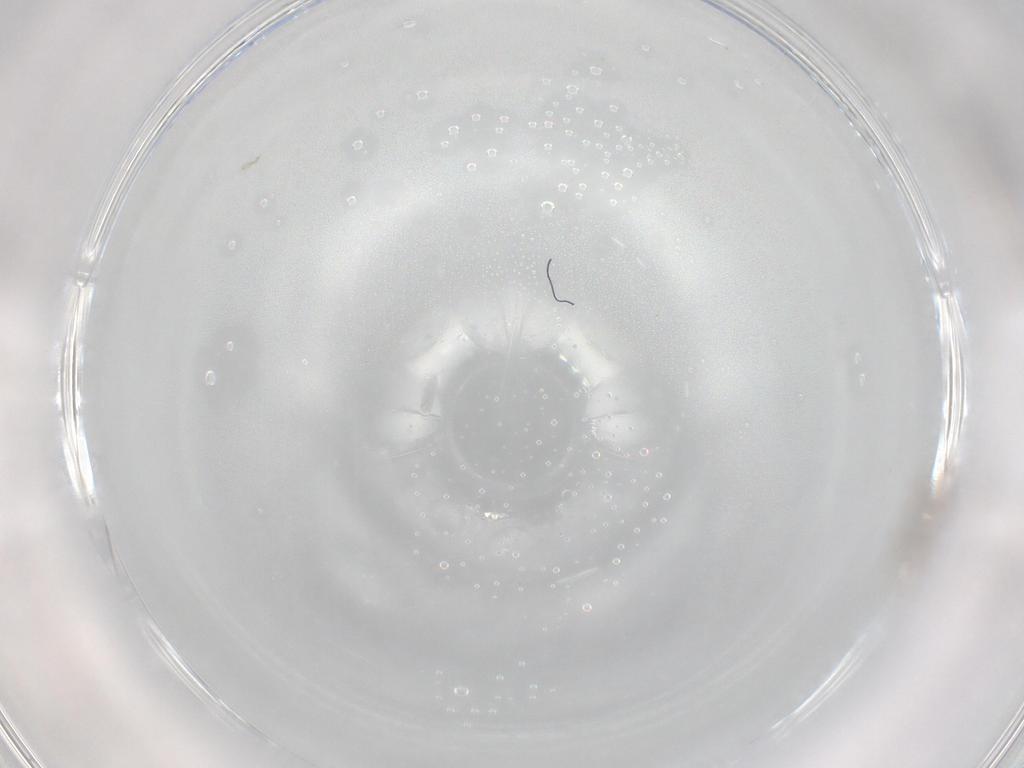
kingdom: Animalia
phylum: Arthropoda
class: Insecta
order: Diptera
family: Cecidomyiidae
